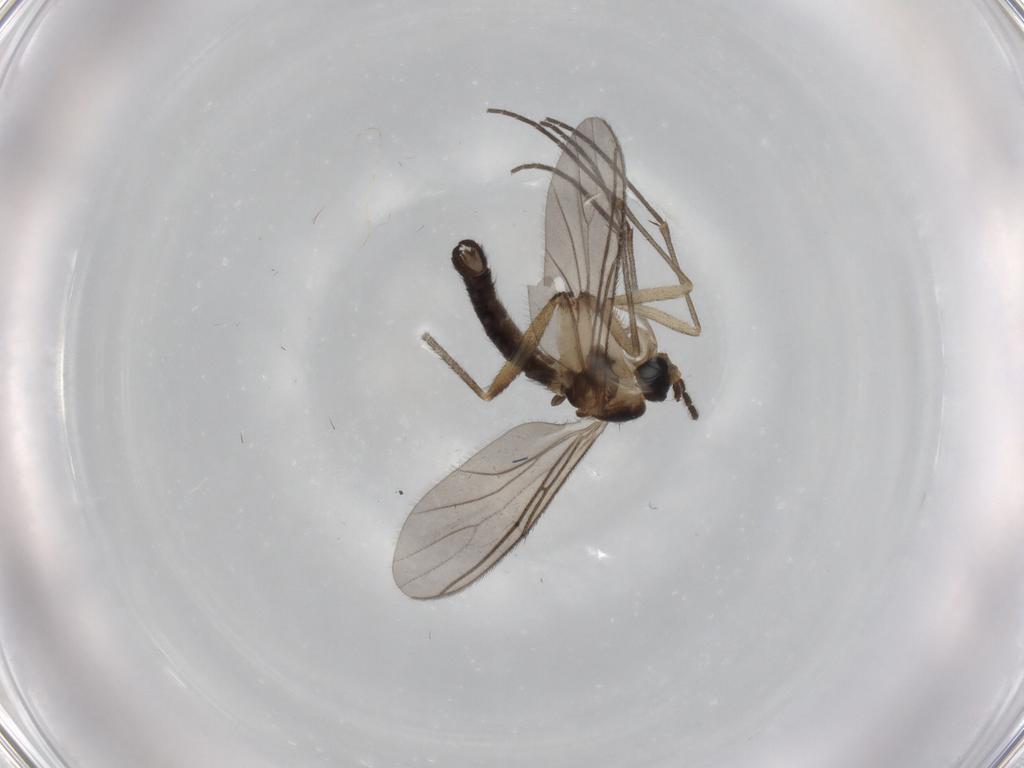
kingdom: Animalia
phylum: Arthropoda
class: Insecta
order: Diptera
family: Sciaridae
